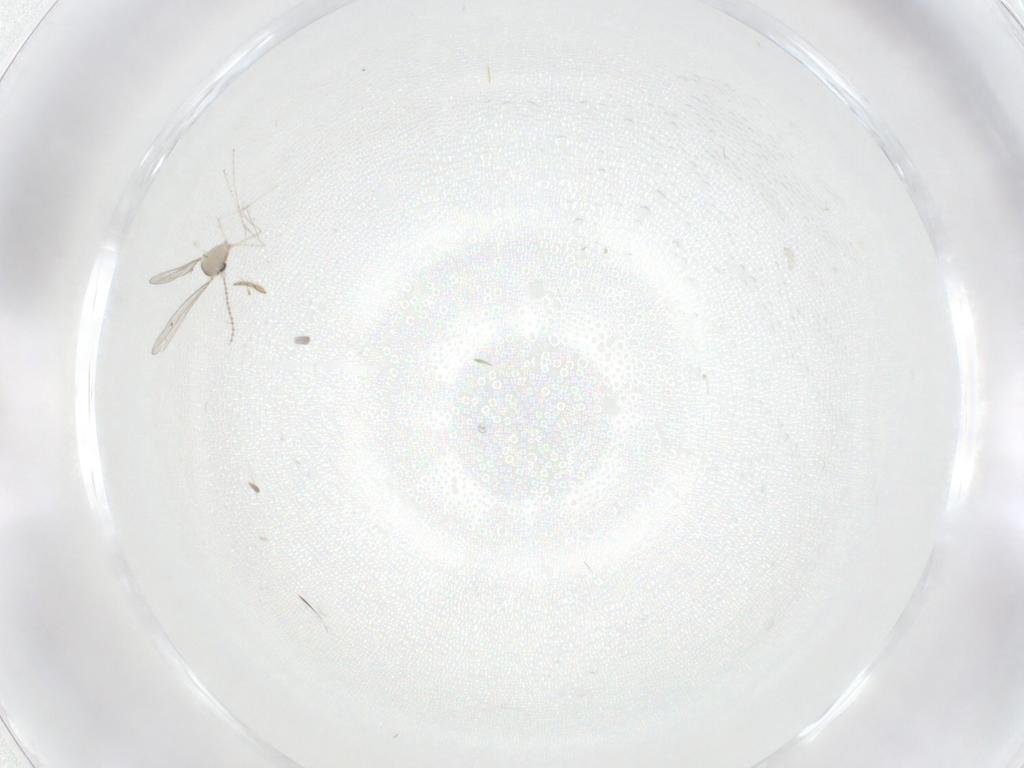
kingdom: Animalia
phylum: Arthropoda
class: Insecta
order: Diptera
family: Cecidomyiidae
